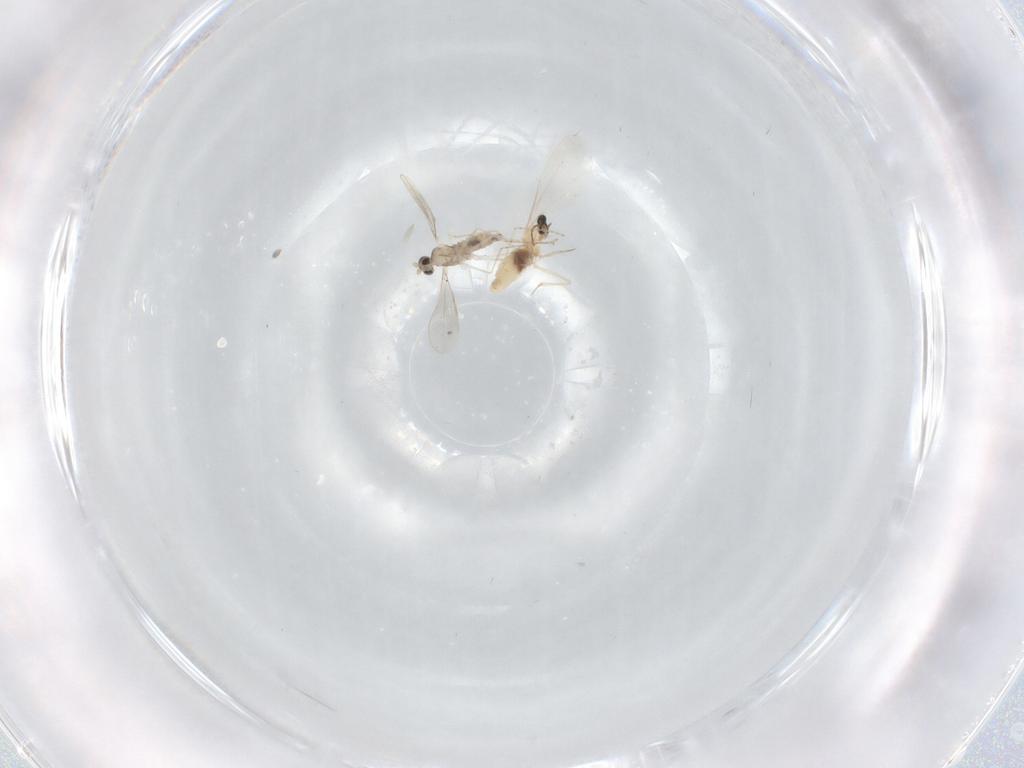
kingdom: Animalia
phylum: Arthropoda
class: Insecta
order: Diptera
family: Cecidomyiidae
